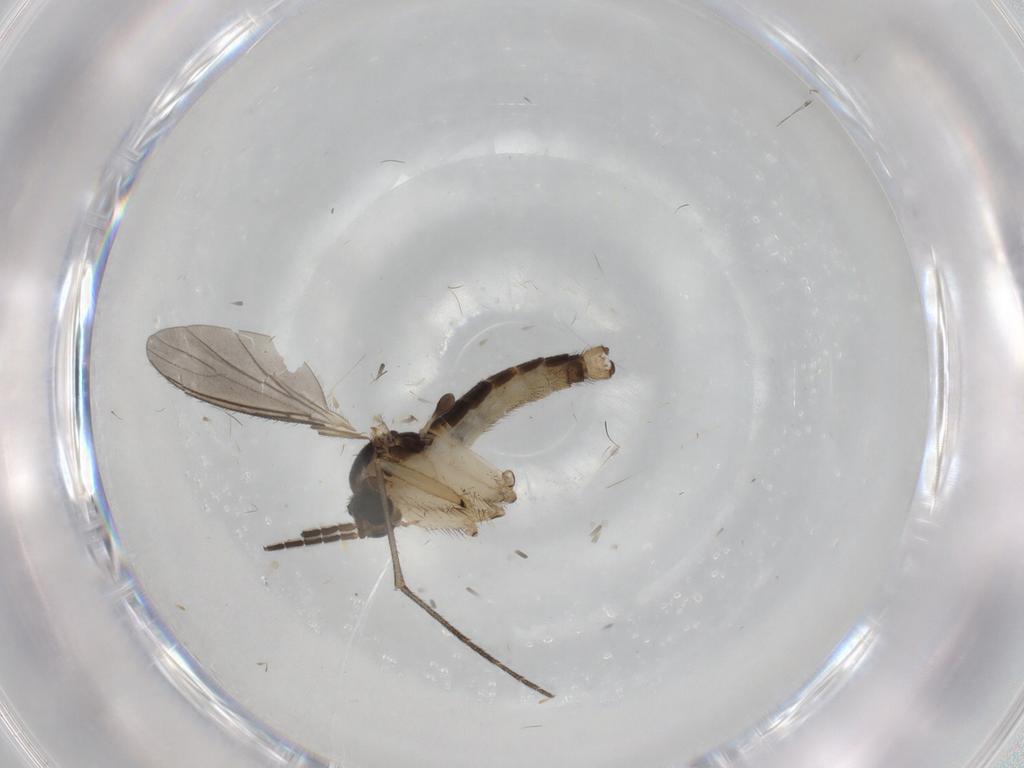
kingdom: Animalia
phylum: Arthropoda
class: Insecta
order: Diptera
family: Sciaridae
